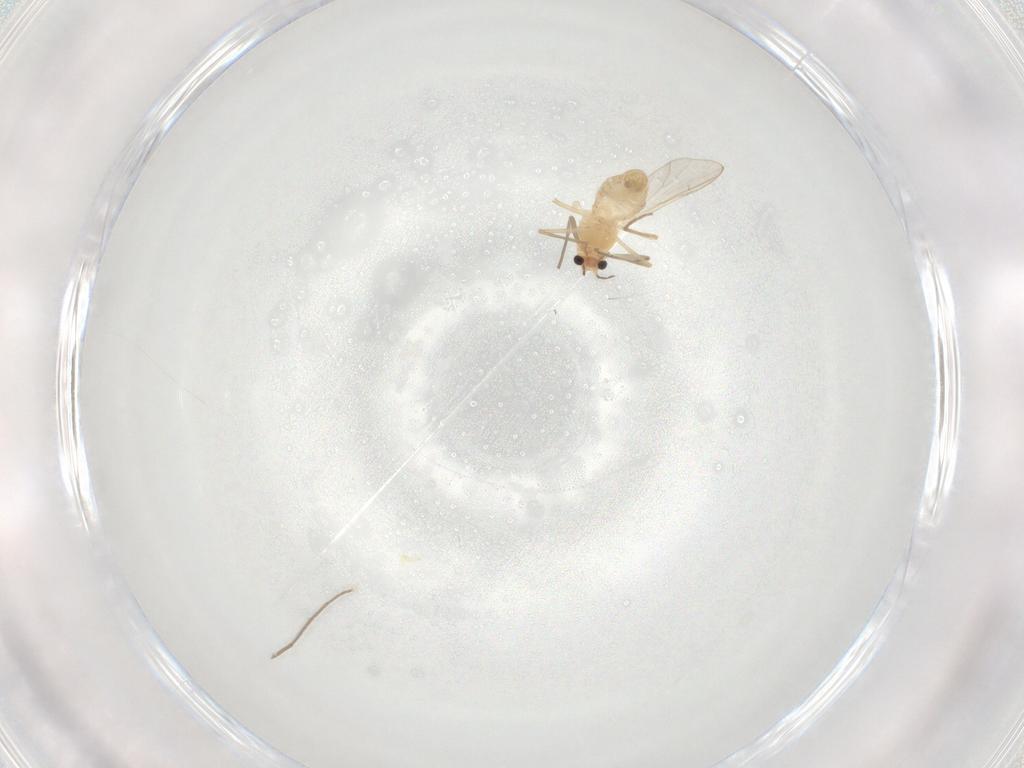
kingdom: Animalia
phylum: Arthropoda
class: Insecta
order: Diptera
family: Chironomidae
